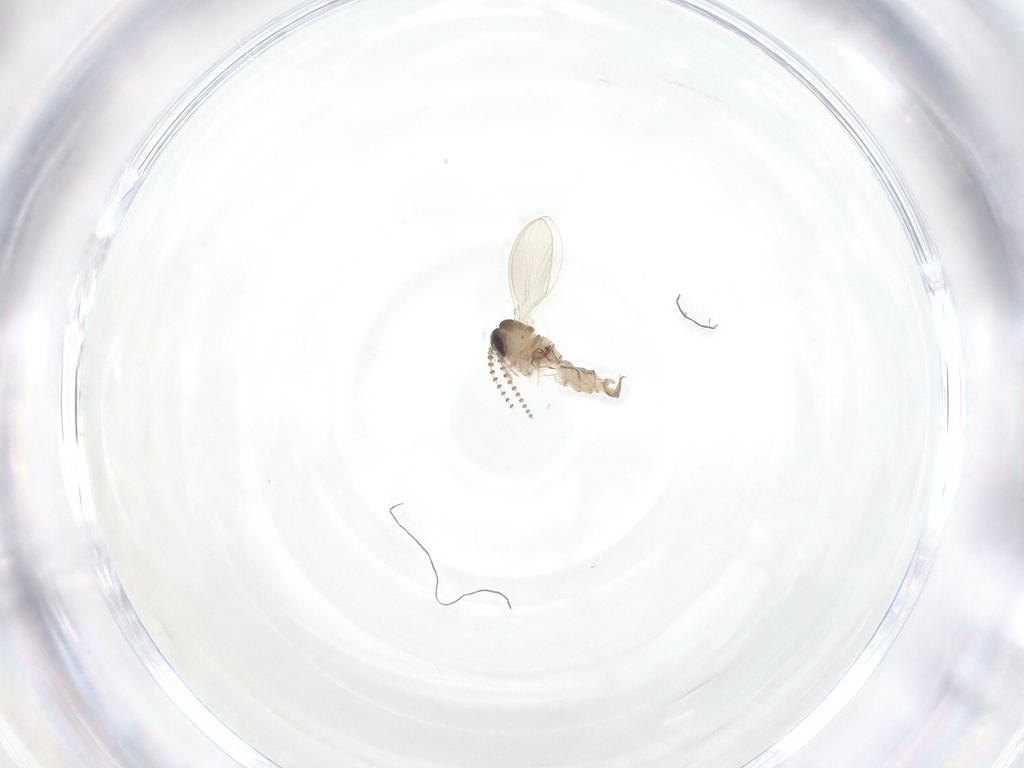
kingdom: Animalia
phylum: Arthropoda
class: Insecta
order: Diptera
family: Psychodidae
